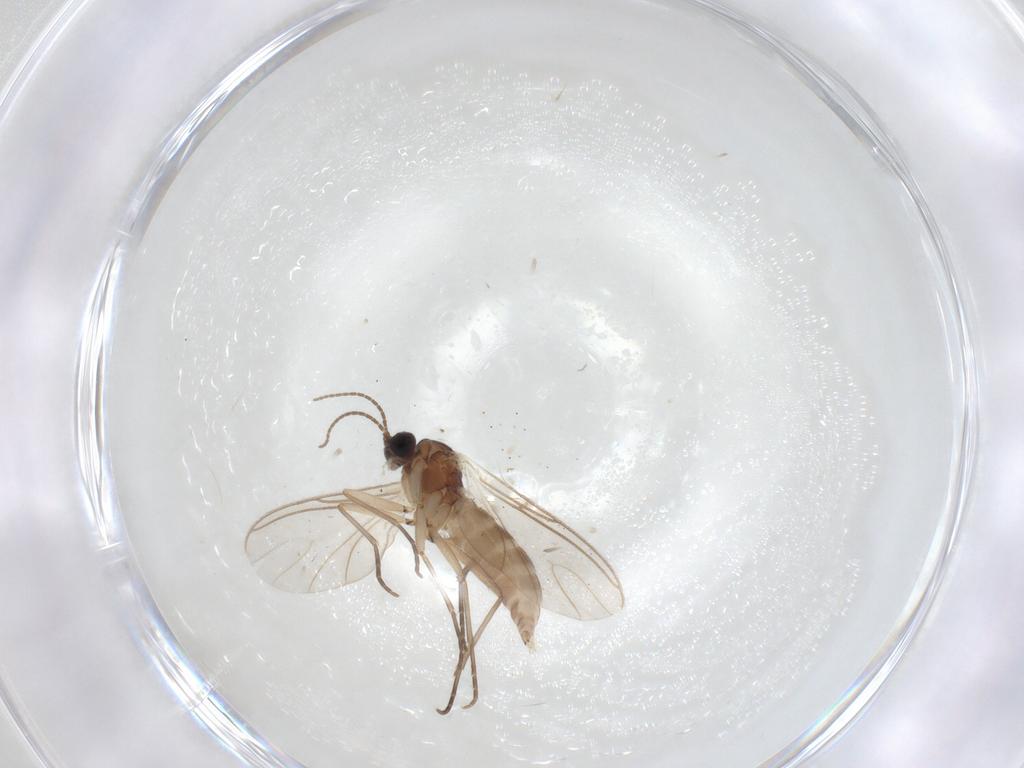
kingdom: Animalia
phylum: Arthropoda
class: Insecta
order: Diptera
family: Sciaridae
